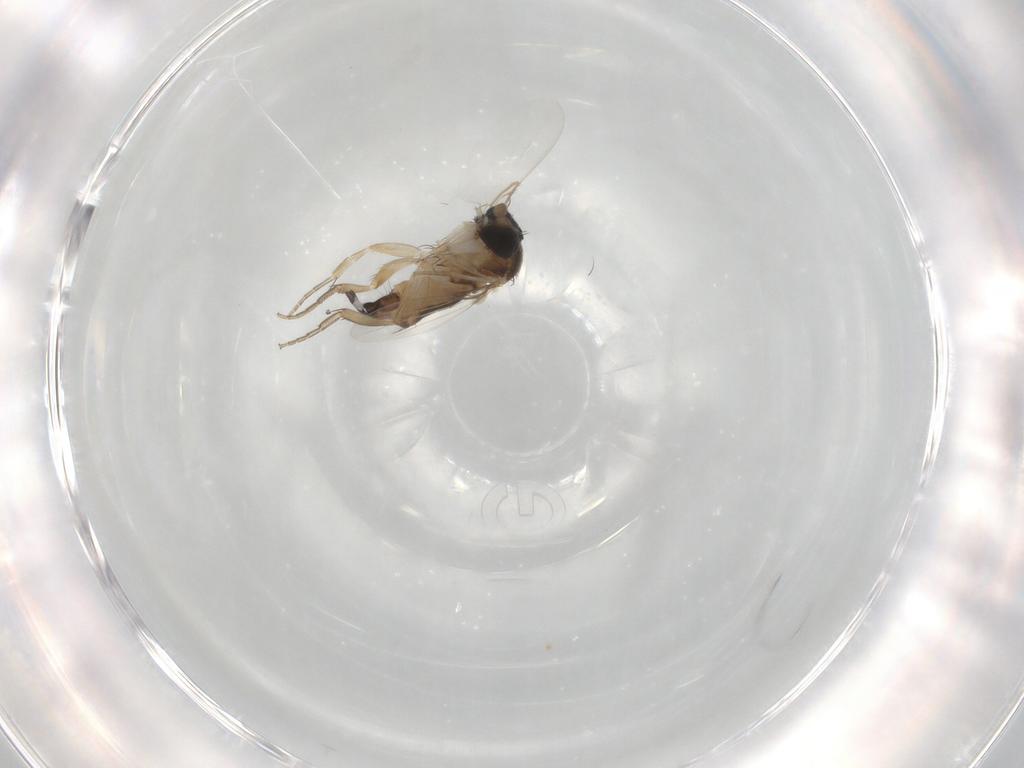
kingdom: Animalia
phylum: Arthropoda
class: Insecta
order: Diptera
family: Phoridae
